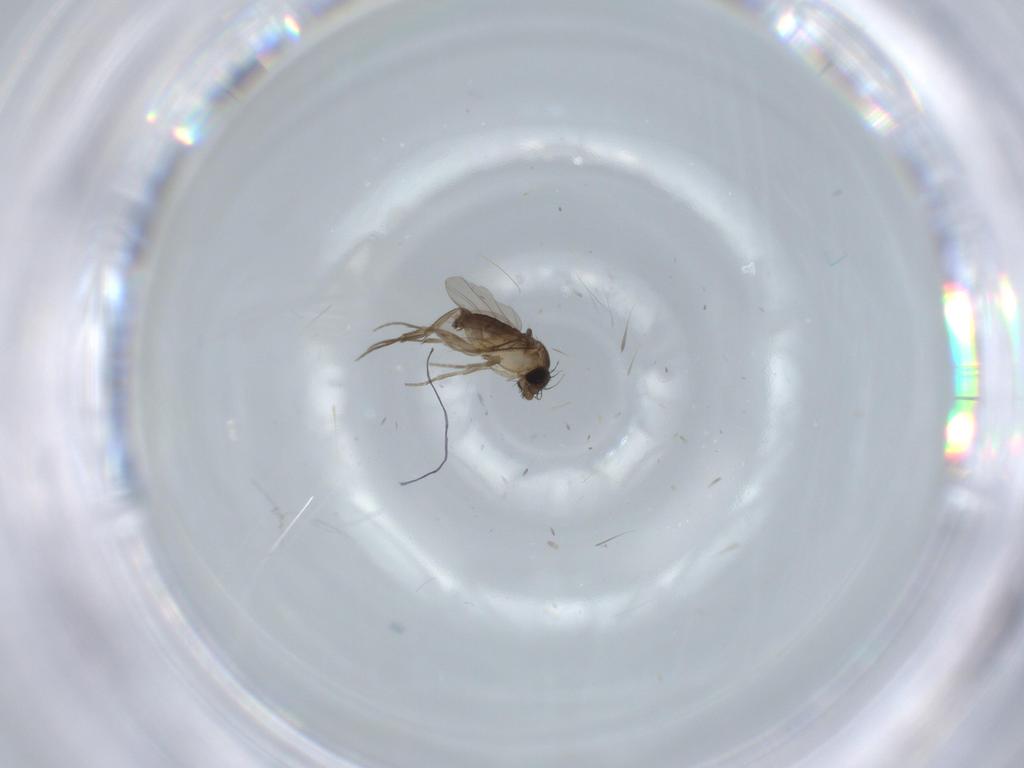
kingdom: Animalia
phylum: Arthropoda
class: Insecta
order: Diptera
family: Phoridae
